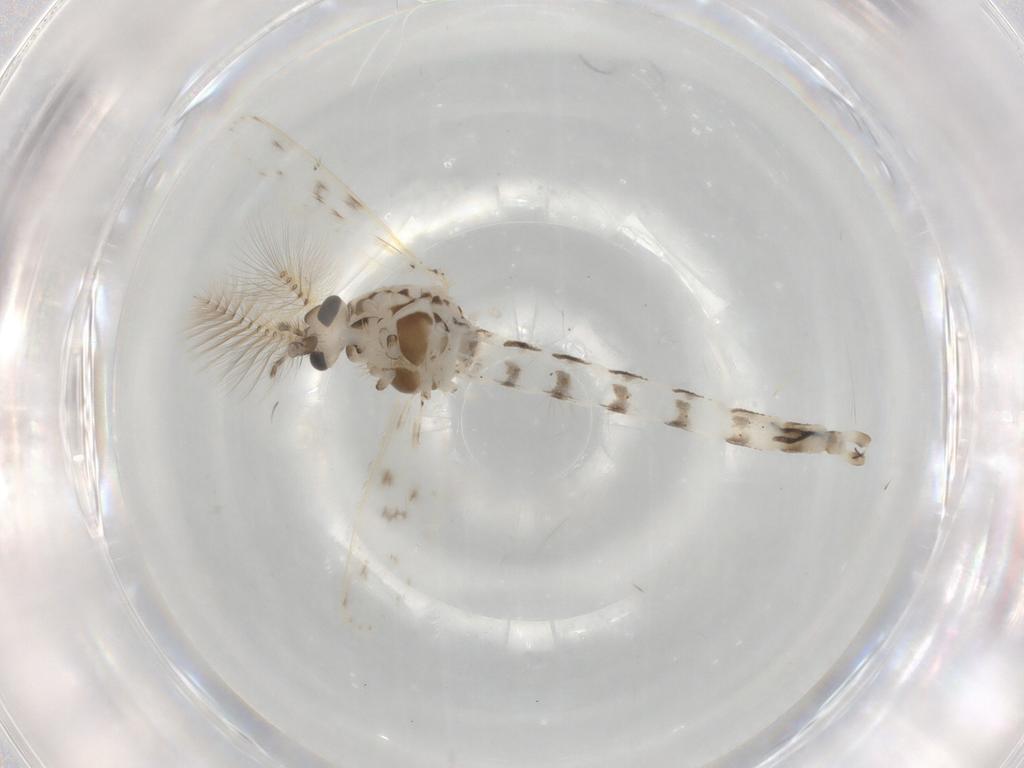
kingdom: Animalia
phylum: Arthropoda
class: Insecta
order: Diptera
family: Chaoboridae
